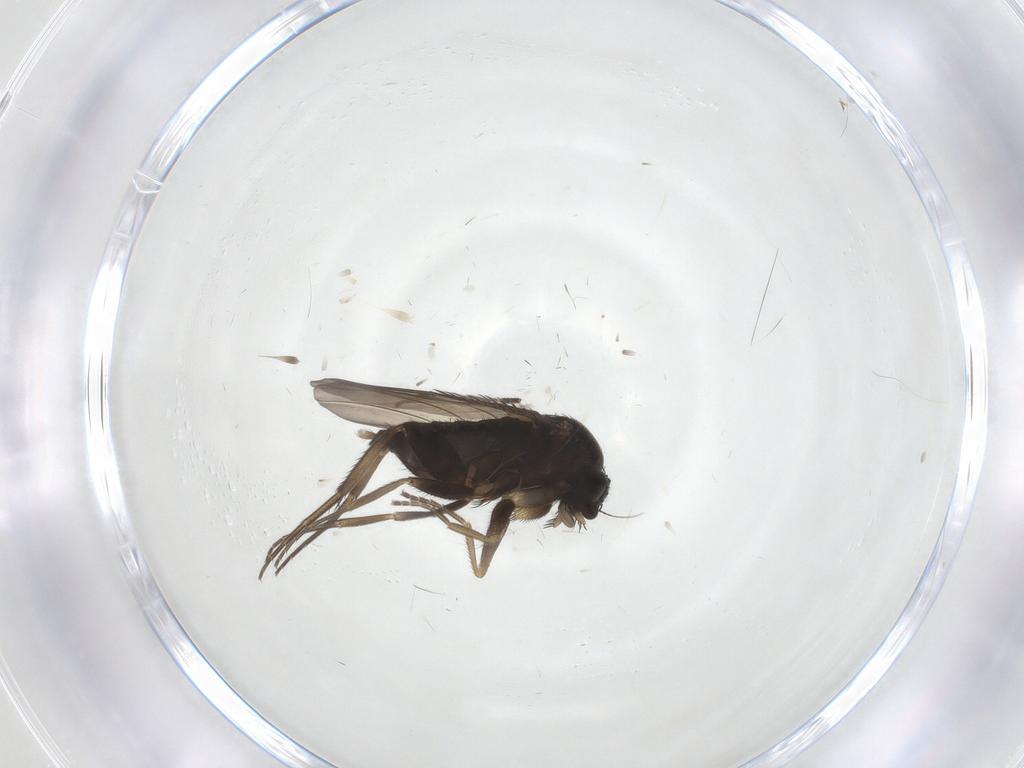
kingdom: Animalia
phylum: Arthropoda
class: Insecta
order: Diptera
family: Phoridae
